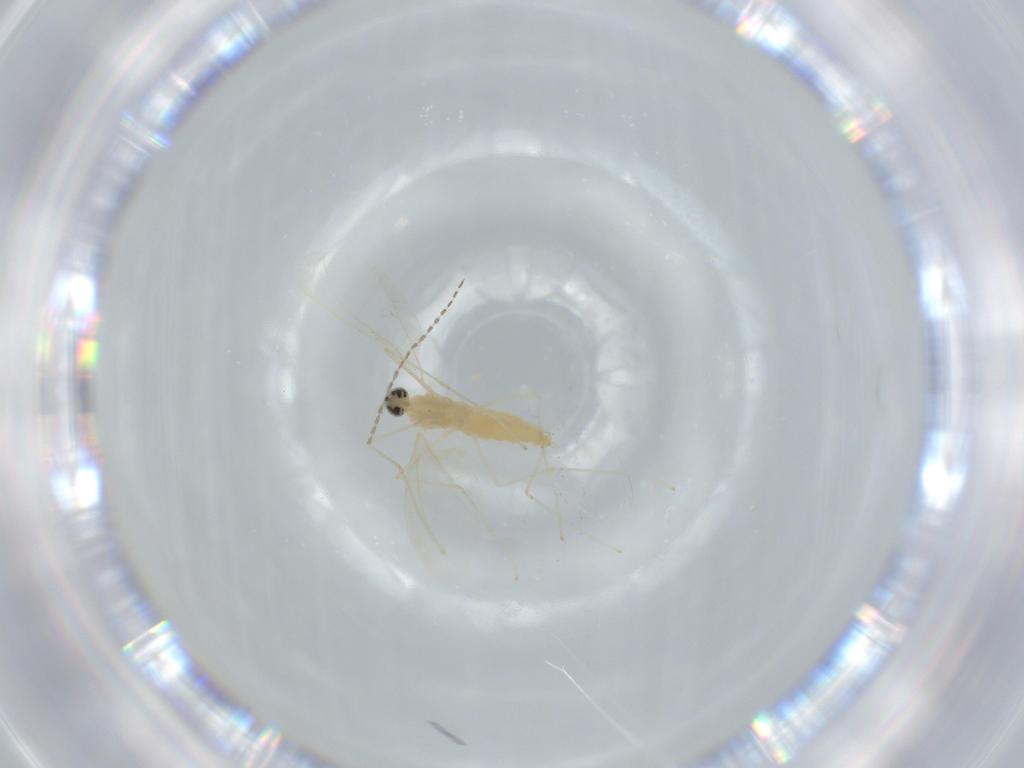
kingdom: Animalia
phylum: Arthropoda
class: Insecta
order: Diptera
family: Cecidomyiidae
